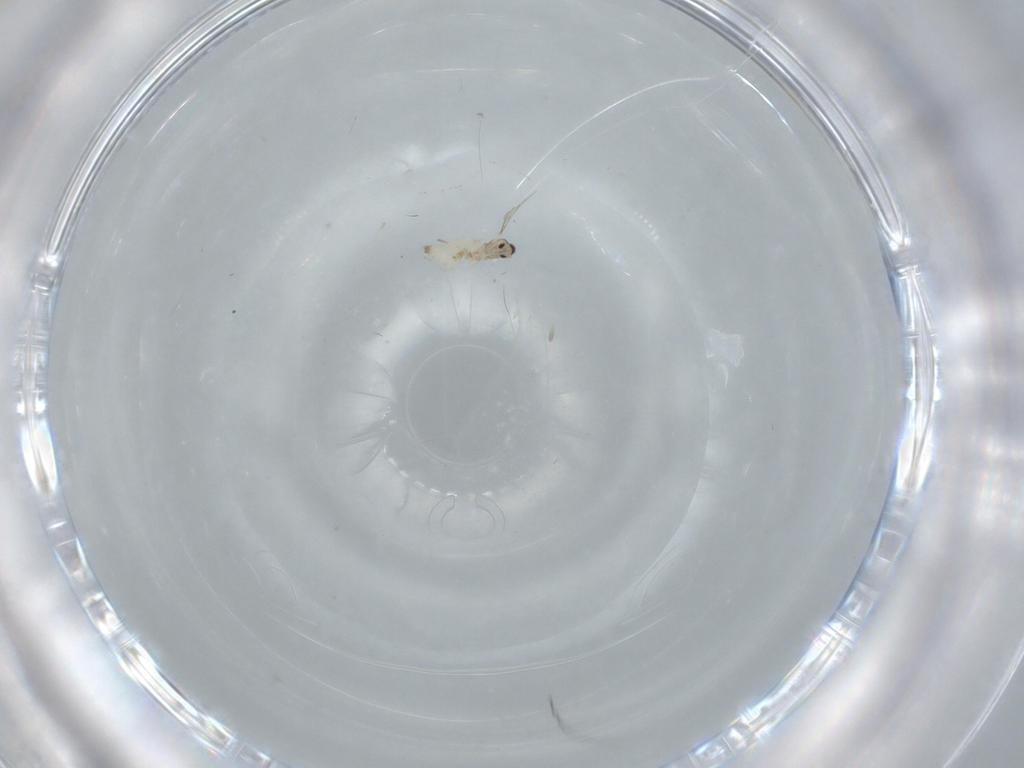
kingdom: Animalia
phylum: Arthropoda
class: Insecta
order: Diptera
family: Cecidomyiidae
